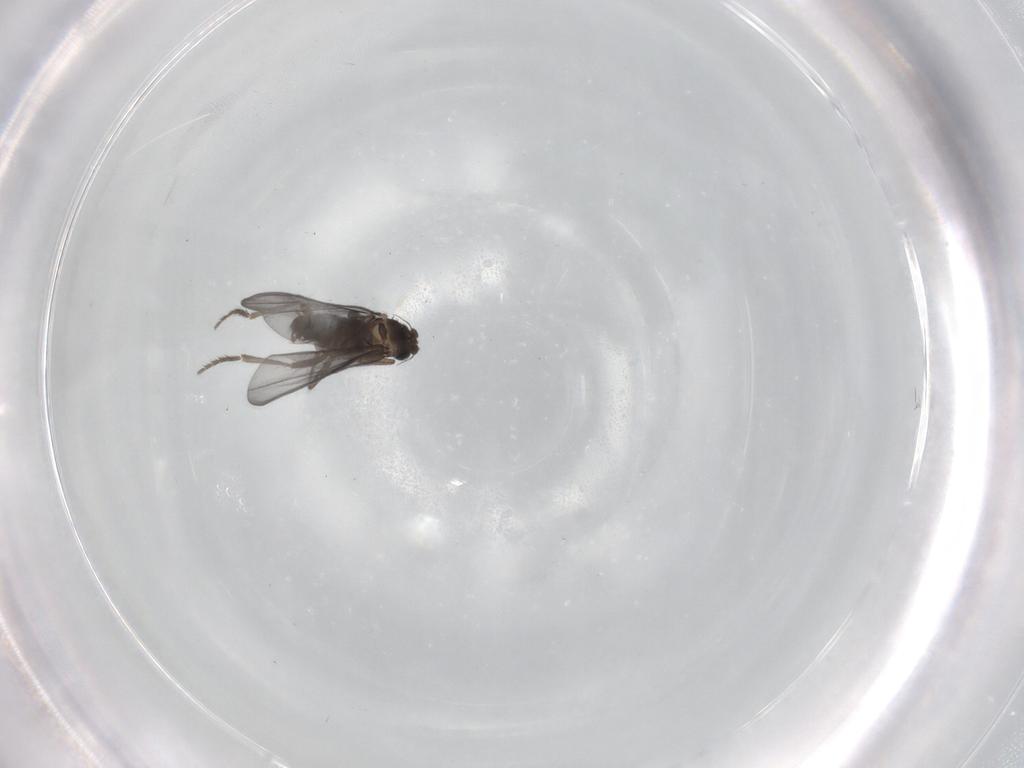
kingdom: Animalia
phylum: Arthropoda
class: Insecta
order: Diptera
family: Phoridae
